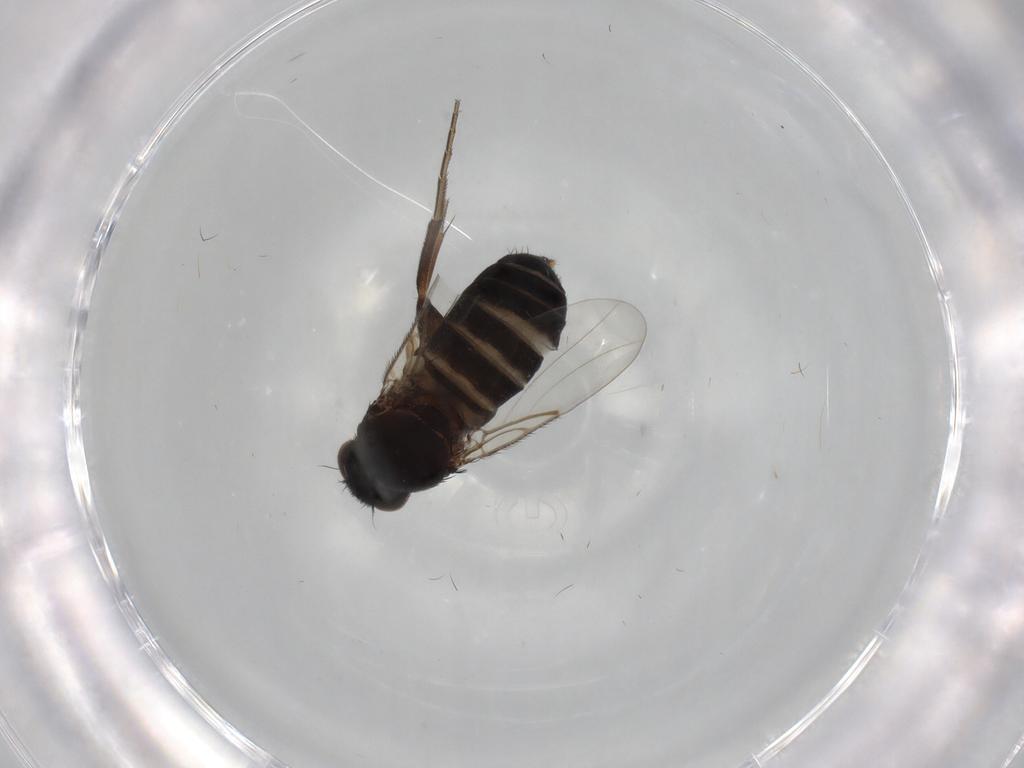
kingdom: Animalia
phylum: Arthropoda
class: Insecta
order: Diptera
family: Phoridae
